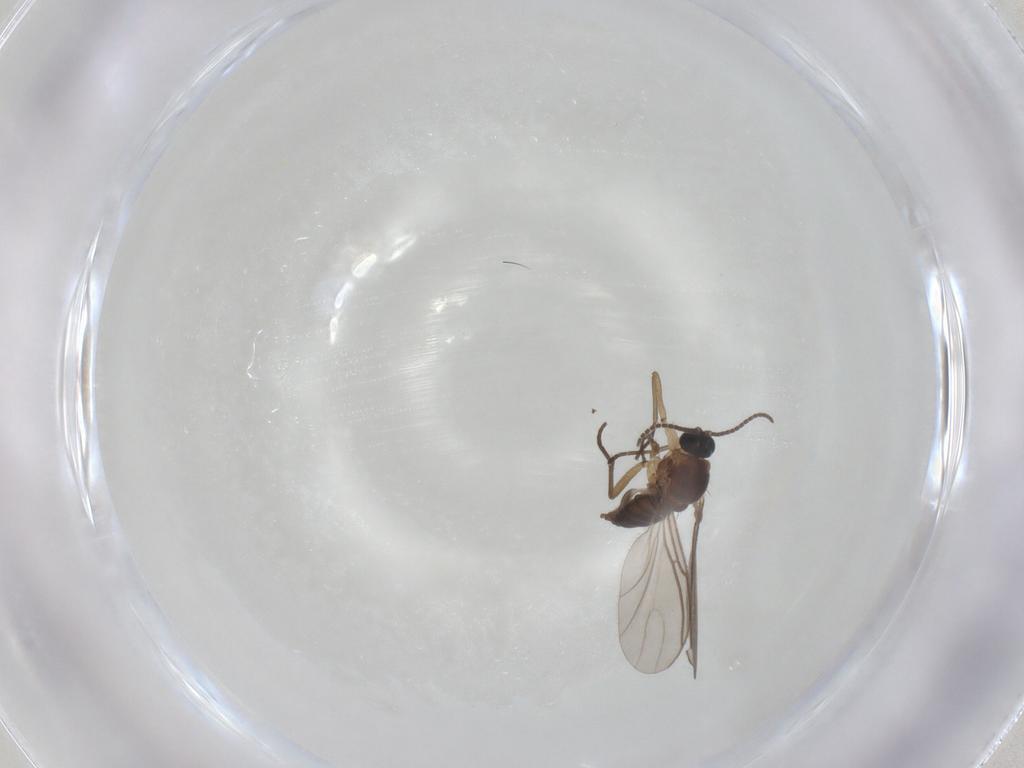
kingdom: Animalia
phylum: Arthropoda
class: Insecta
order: Diptera
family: Sciaridae
